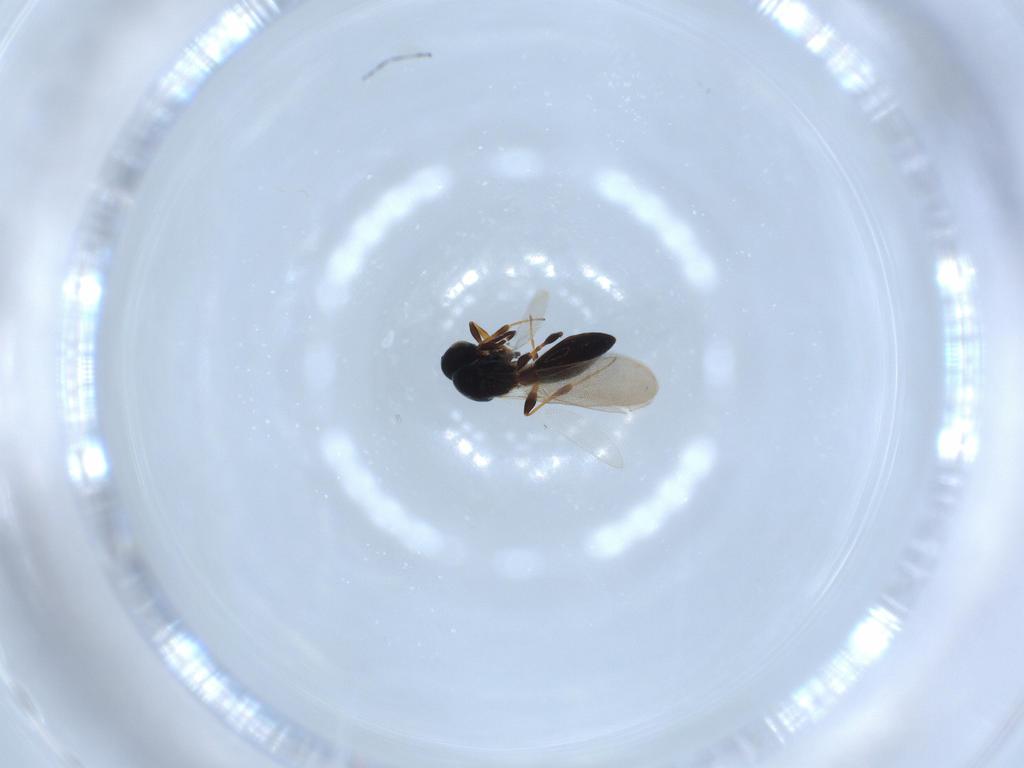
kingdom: Animalia
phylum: Arthropoda
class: Insecta
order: Hymenoptera
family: Platygastridae
